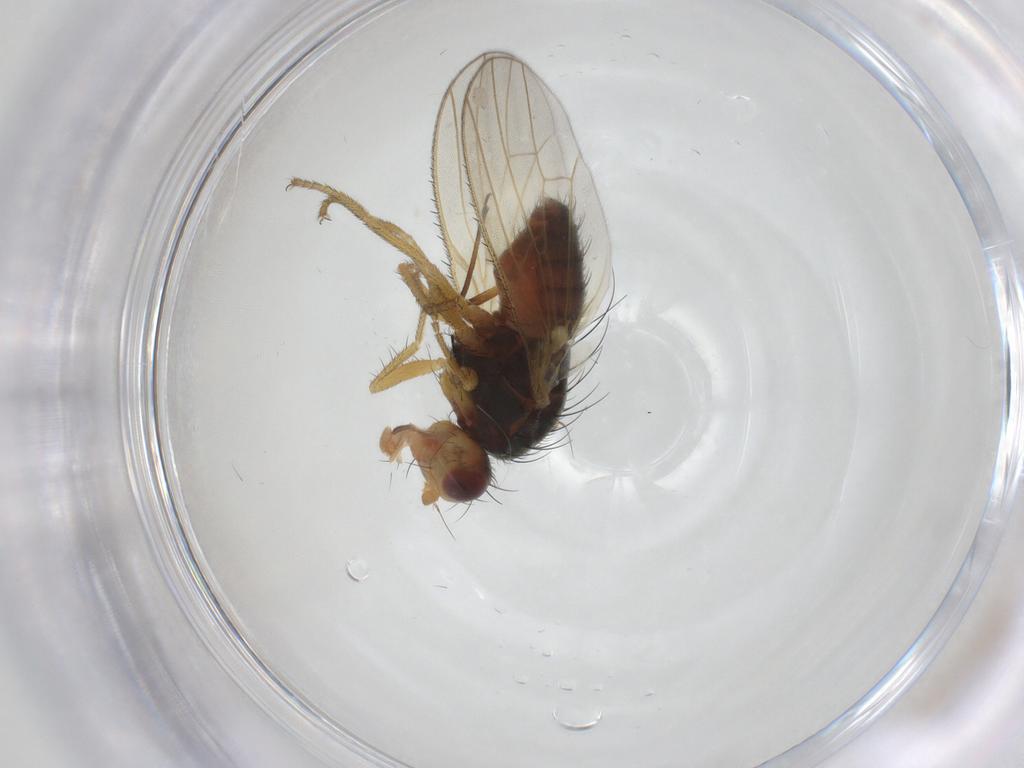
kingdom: Animalia
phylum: Arthropoda
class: Insecta
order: Diptera
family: Heleomyzidae
